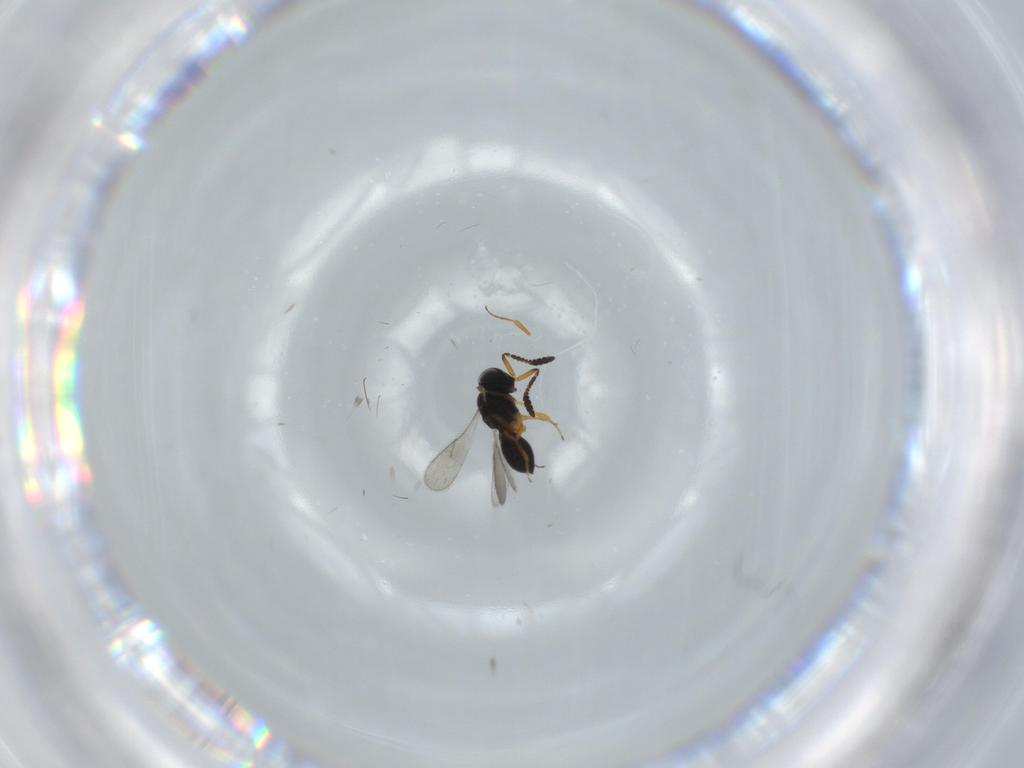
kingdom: Animalia
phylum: Arthropoda
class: Insecta
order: Hymenoptera
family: Scelionidae
